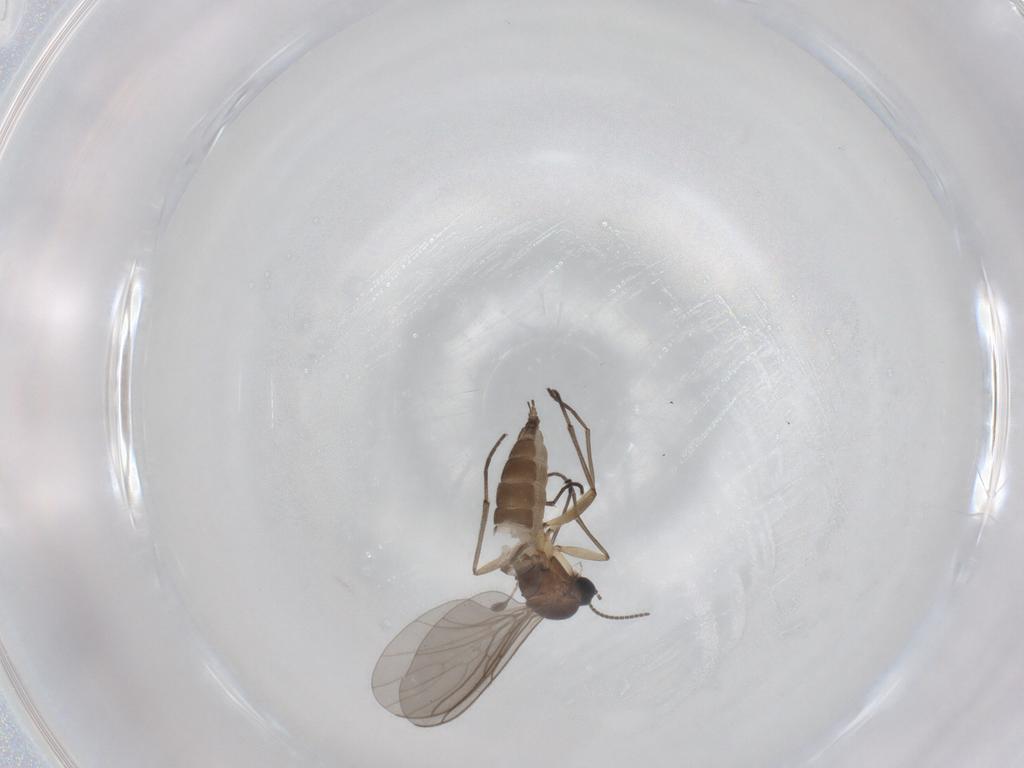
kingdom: Animalia
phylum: Arthropoda
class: Insecta
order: Diptera
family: Sciaridae
